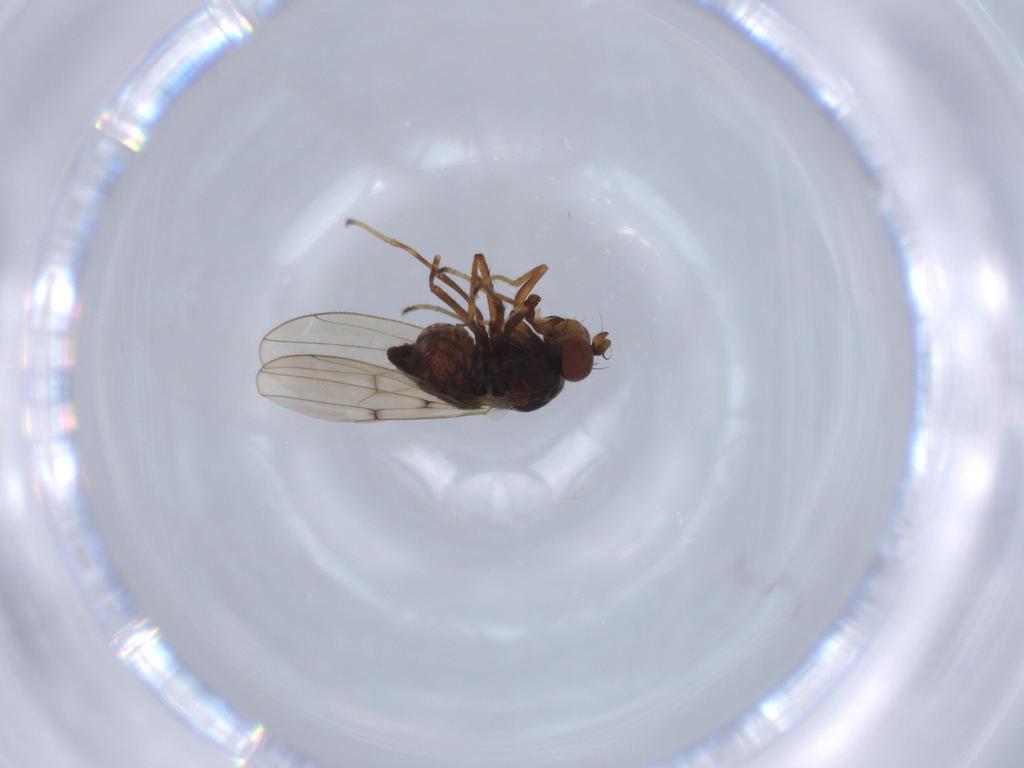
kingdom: Animalia
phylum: Arthropoda
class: Insecta
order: Diptera
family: Ephydridae
